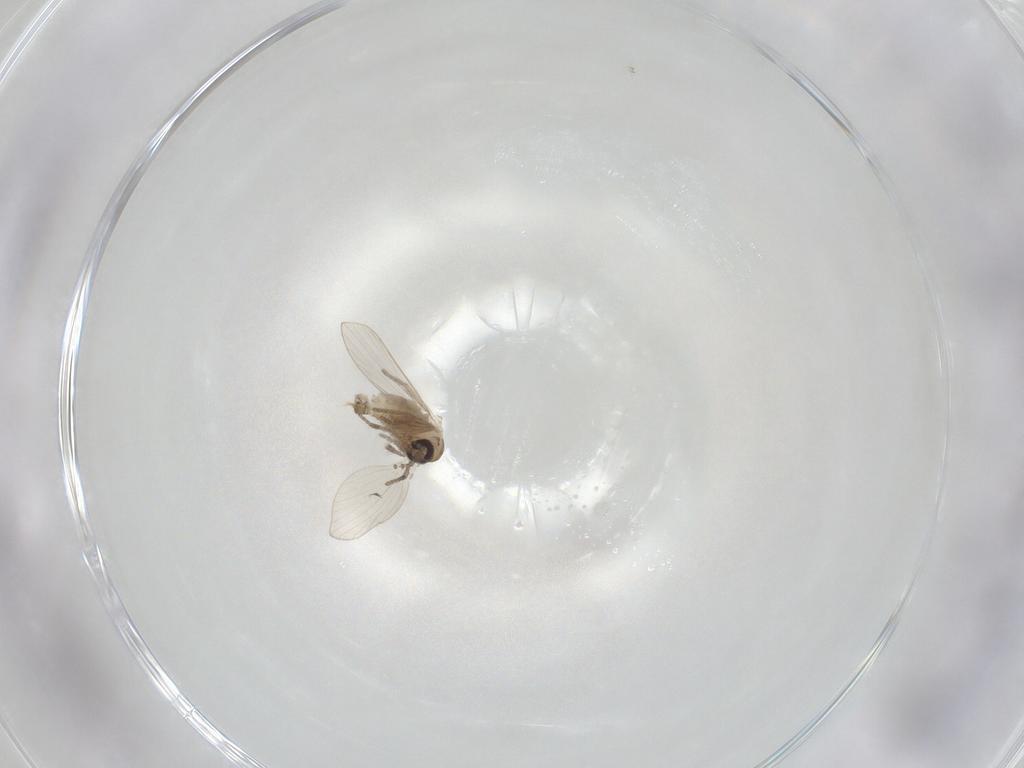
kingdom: Animalia
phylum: Arthropoda
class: Insecta
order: Diptera
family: Psychodidae
